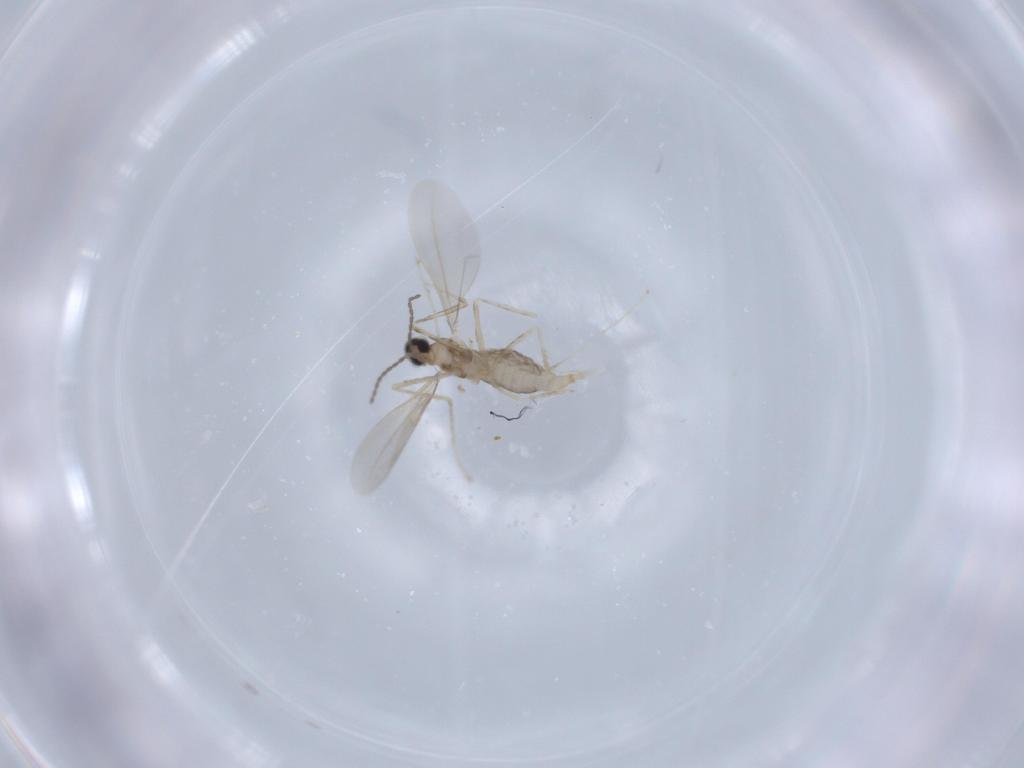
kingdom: Animalia
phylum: Arthropoda
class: Insecta
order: Diptera
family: Cecidomyiidae
